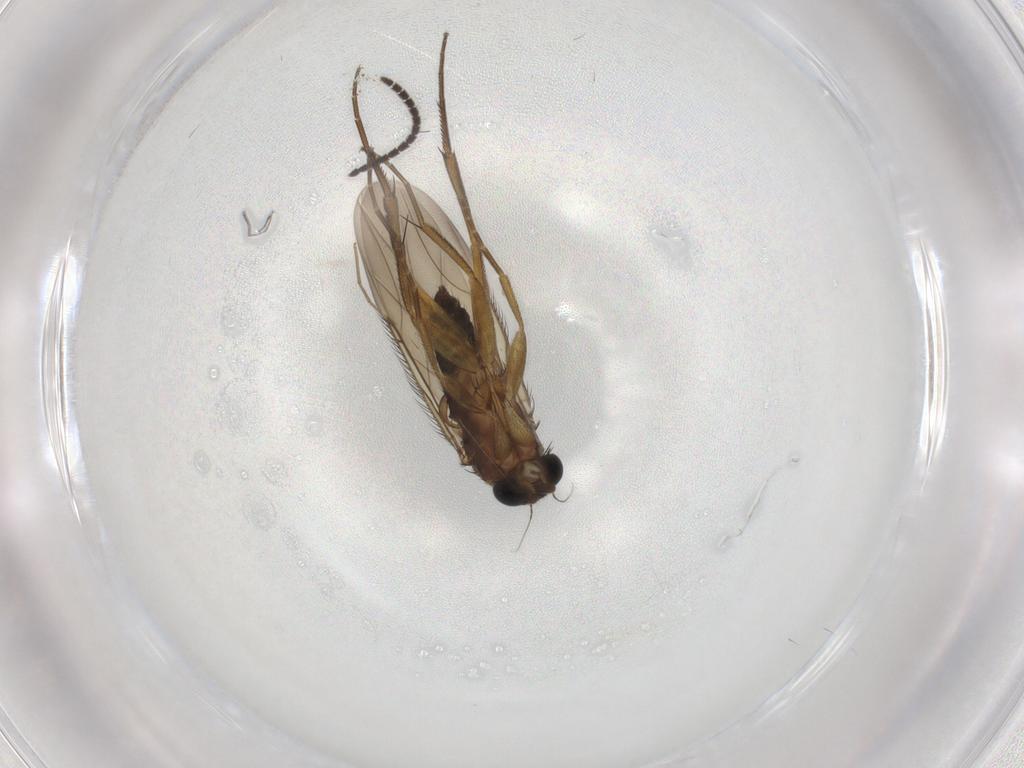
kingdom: Animalia
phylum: Arthropoda
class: Insecta
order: Diptera
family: Phoridae
